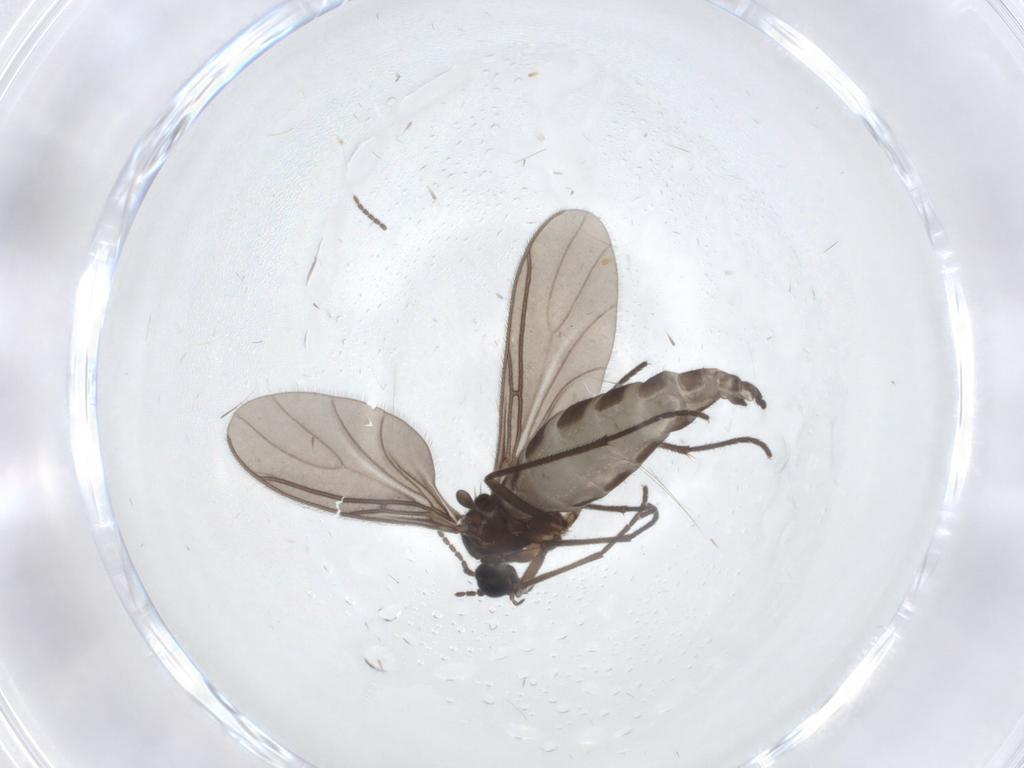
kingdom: Animalia
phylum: Arthropoda
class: Insecta
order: Diptera
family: Sciaridae
